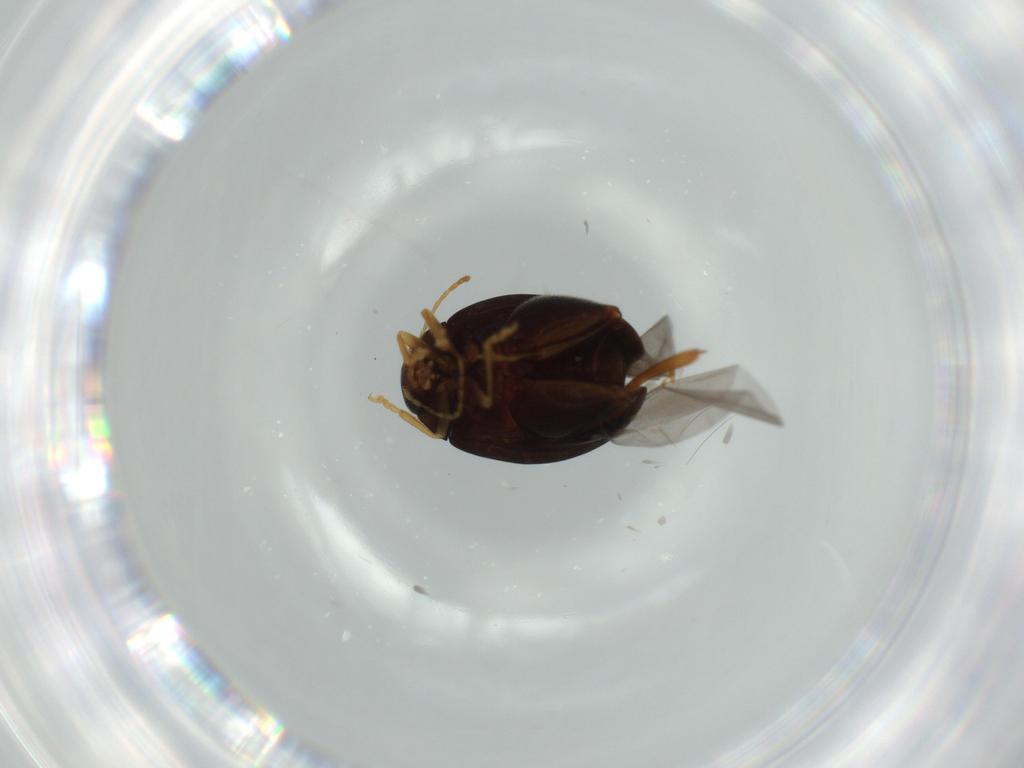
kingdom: Animalia
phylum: Arthropoda
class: Insecta
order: Coleoptera
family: Chrysomelidae
